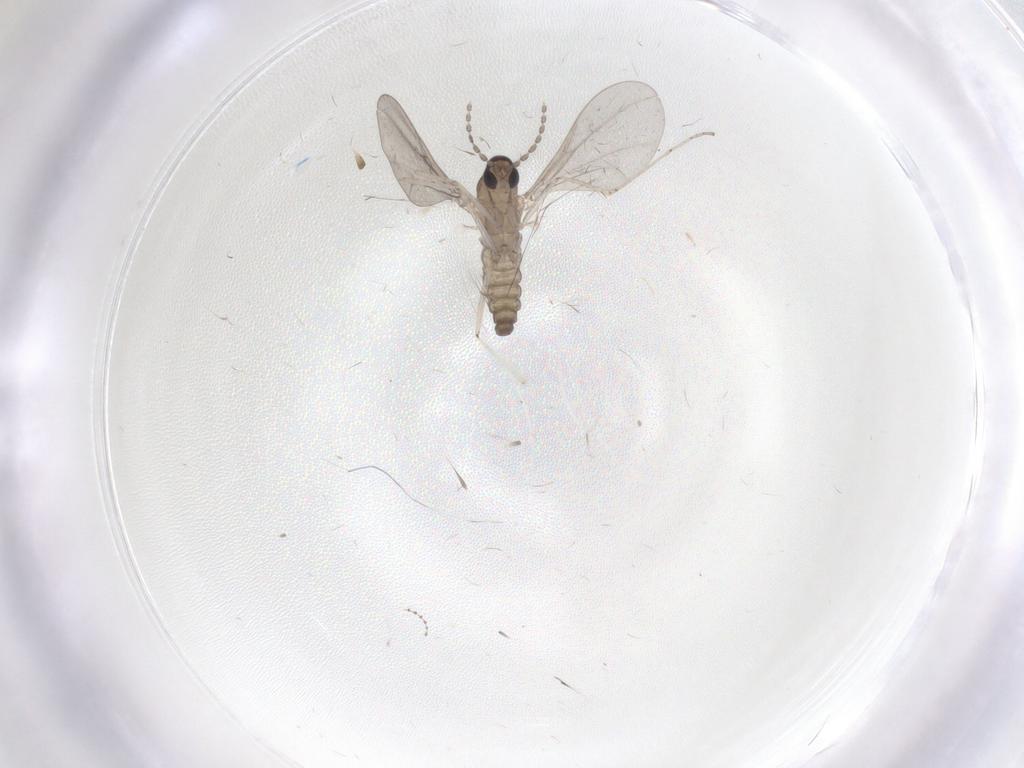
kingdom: Animalia
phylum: Arthropoda
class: Insecta
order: Diptera
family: Cecidomyiidae
